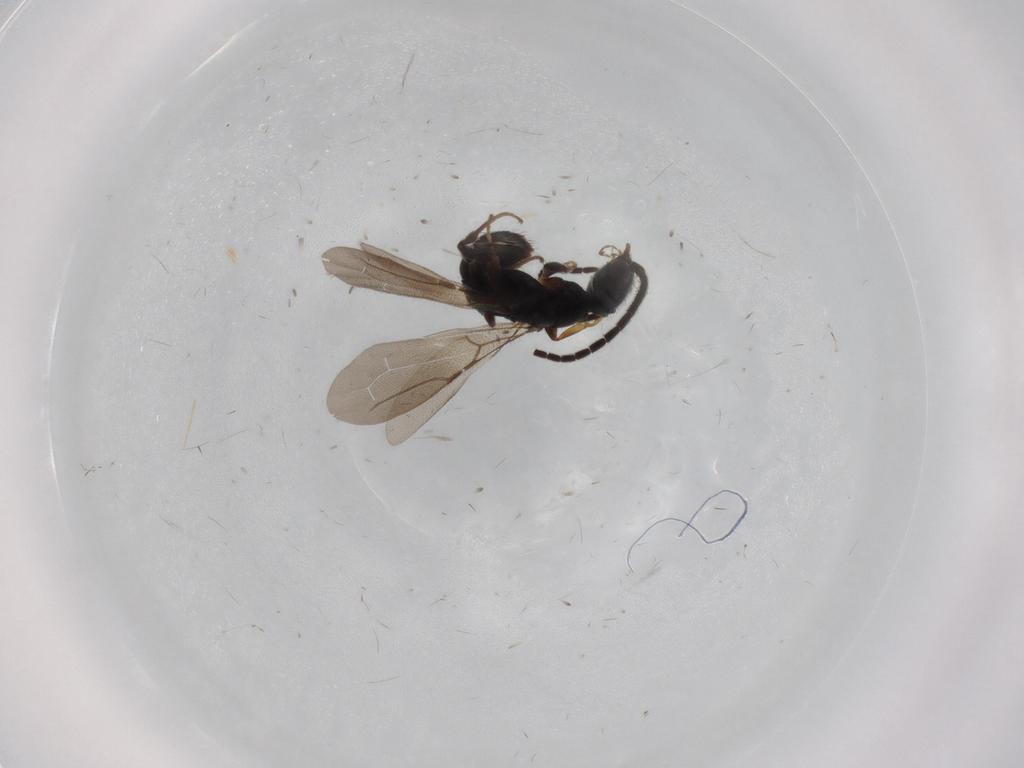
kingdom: Animalia
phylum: Arthropoda
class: Insecta
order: Hymenoptera
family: Bethylidae
